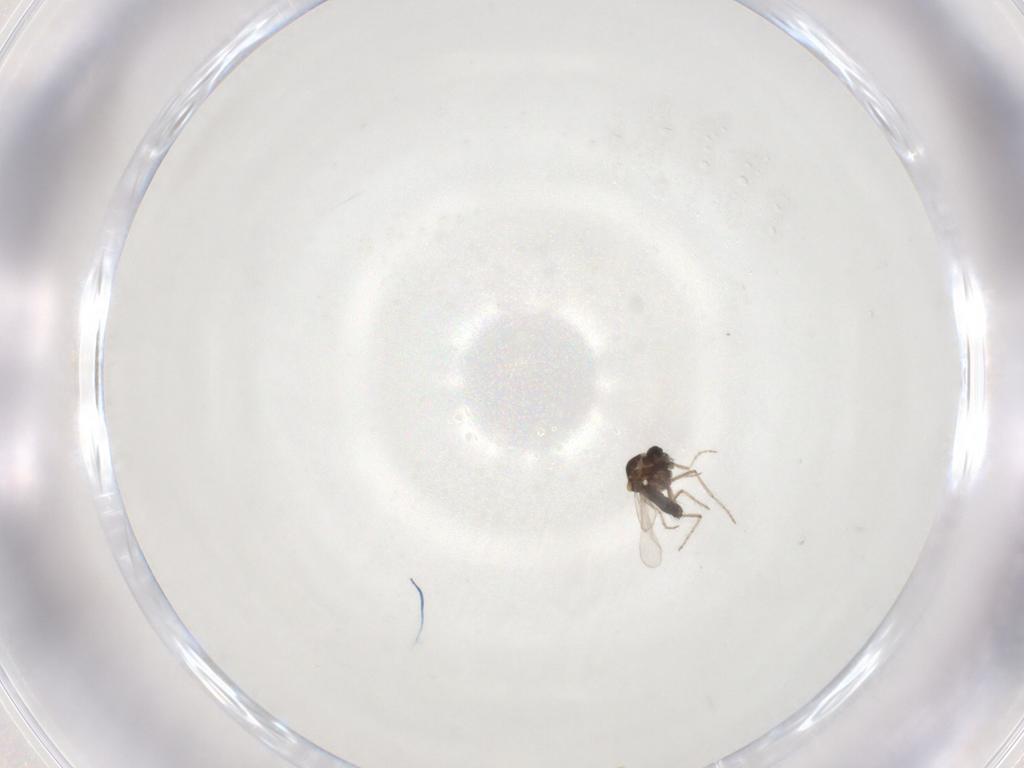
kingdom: Animalia
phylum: Arthropoda
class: Insecta
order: Diptera
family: Ceratopogonidae
